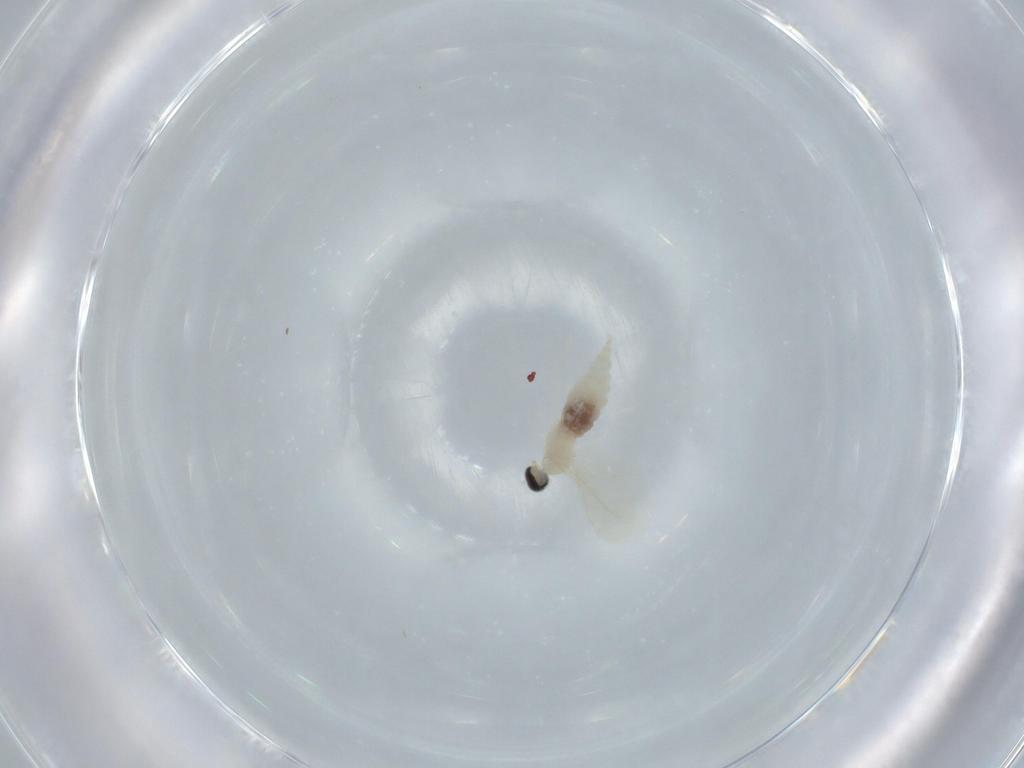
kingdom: Animalia
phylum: Arthropoda
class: Insecta
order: Diptera
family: Cecidomyiidae
